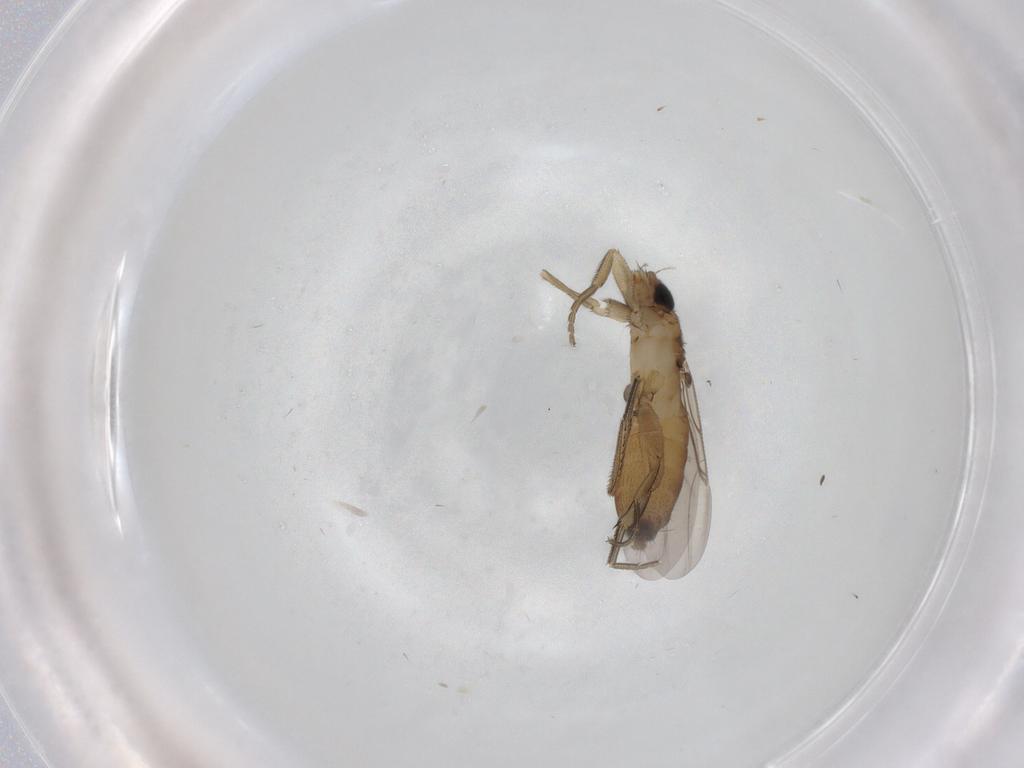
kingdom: Animalia
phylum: Arthropoda
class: Insecta
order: Diptera
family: Phoridae
